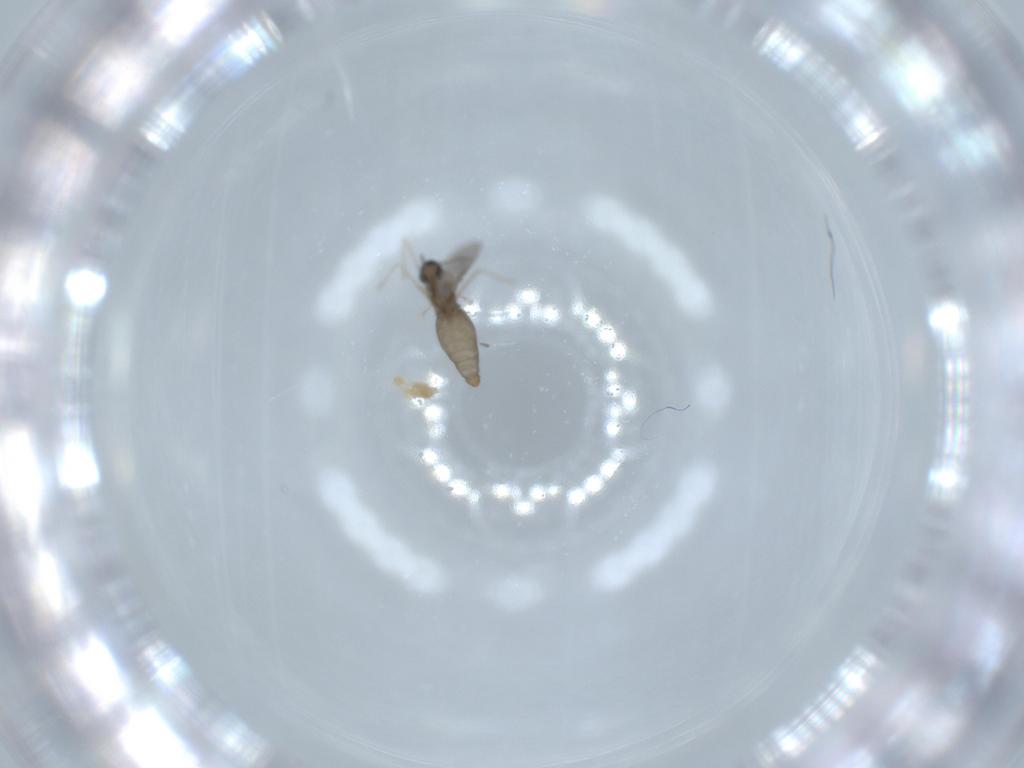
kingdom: Animalia
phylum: Arthropoda
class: Insecta
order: Diptera
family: Cecidomyiidae
